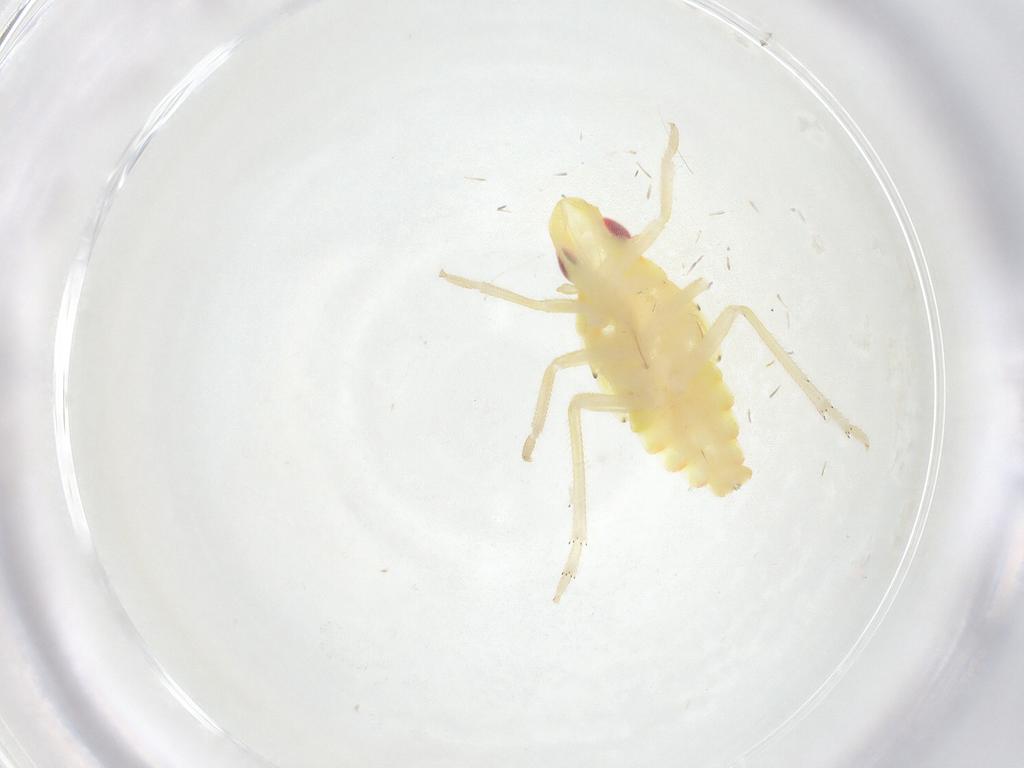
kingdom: Animalia
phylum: Arthropoda
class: Insecta
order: Hemiptera
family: Tropiduchidae
